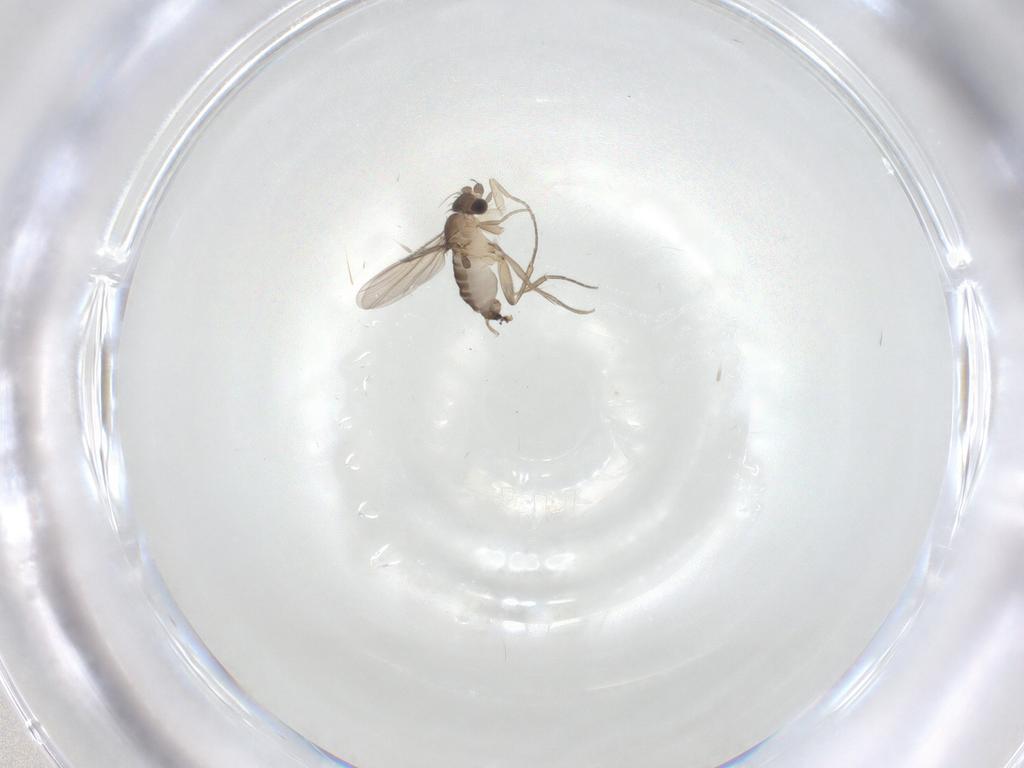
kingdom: Animalia
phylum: Arthropoda
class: Insecta
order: Diptera
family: Phoridae
